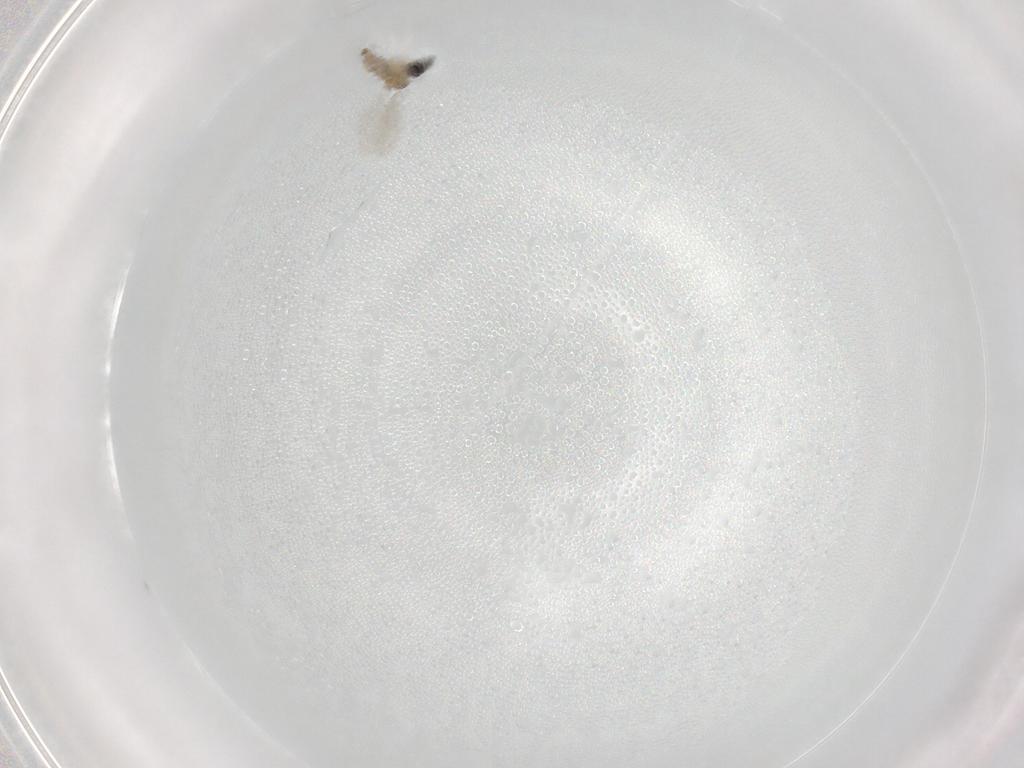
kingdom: Animalia
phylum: Arthropoda
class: Insecta
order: Diptera
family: Cecidomyiidae
